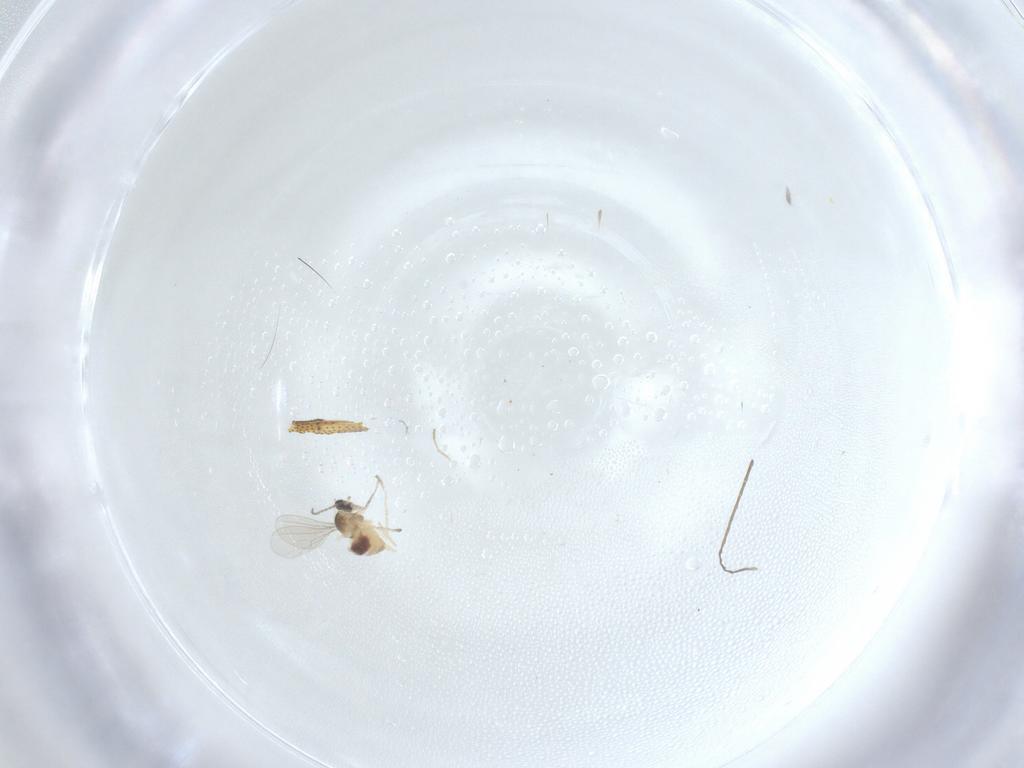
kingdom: Animalia
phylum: Arthropoda
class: Insecta
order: Diptera
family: Cecidomyiidae
